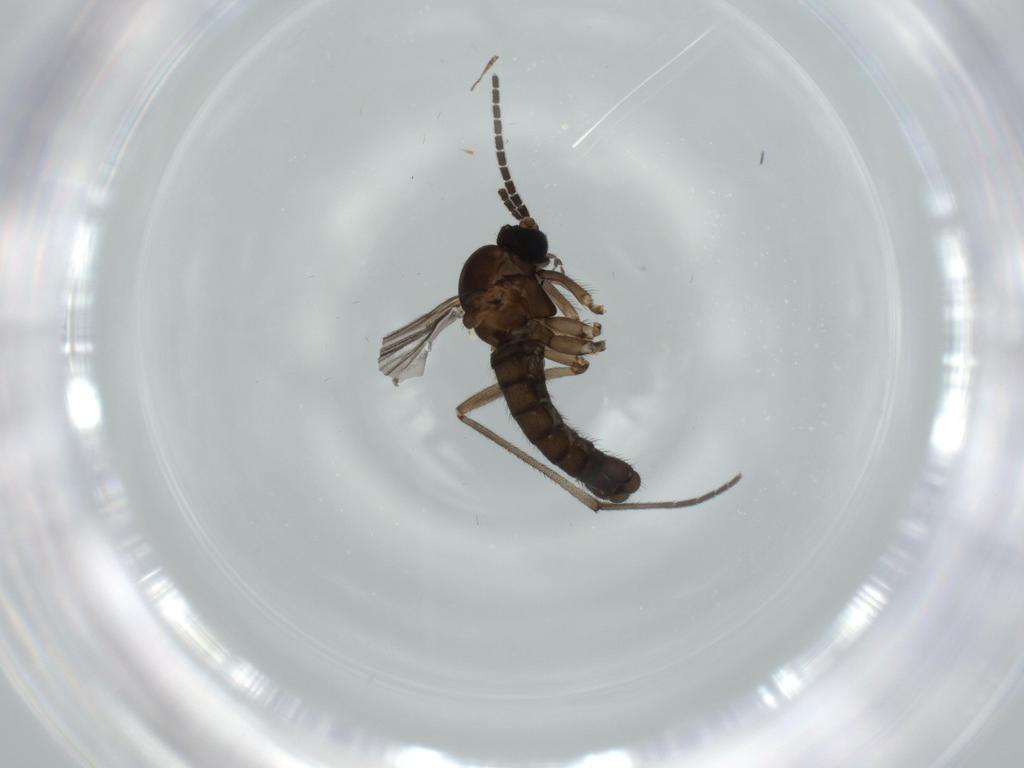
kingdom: Animalia
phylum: Arthropoda
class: Insecta
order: Diptera
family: Sciaridae
